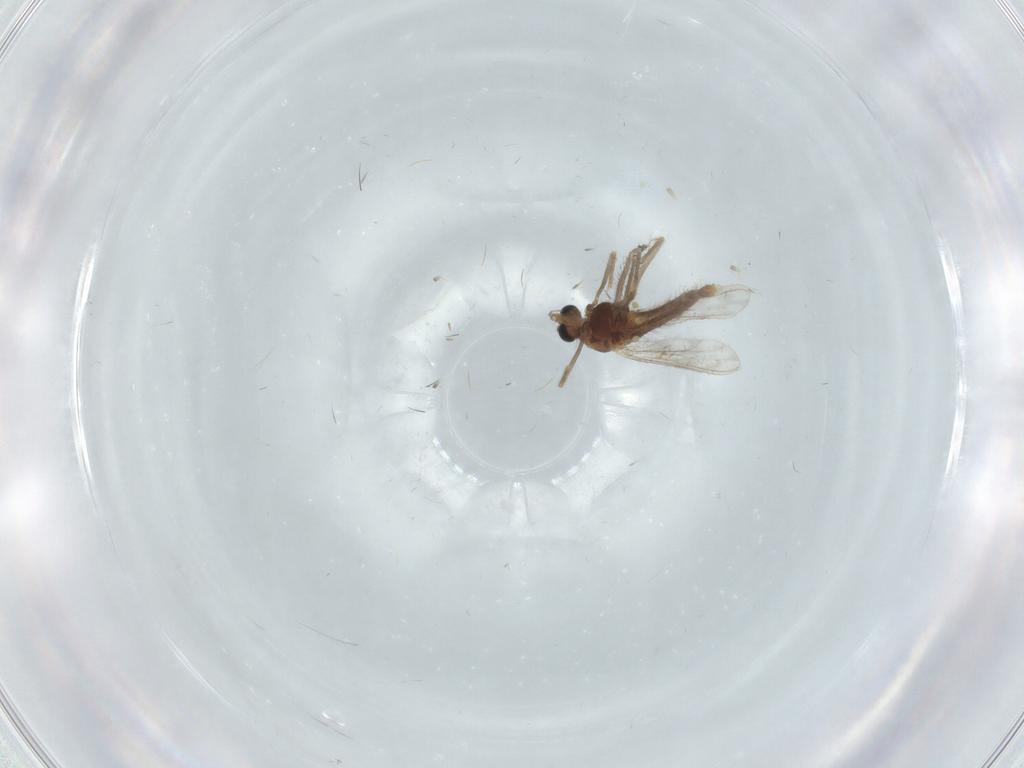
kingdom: Animalia
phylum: Arthropoda
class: Insecta
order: Diptera
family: Chironomidae
